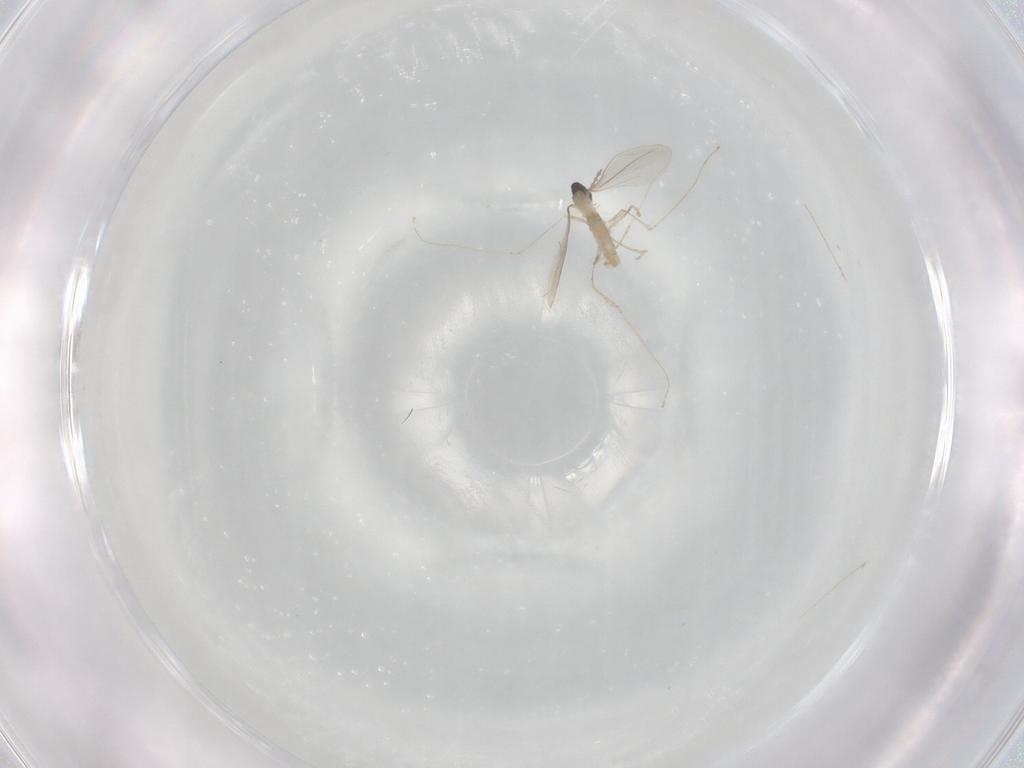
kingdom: Animalia
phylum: Arthropoda
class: Insecta
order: Diptera
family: Cecidomyiidae
